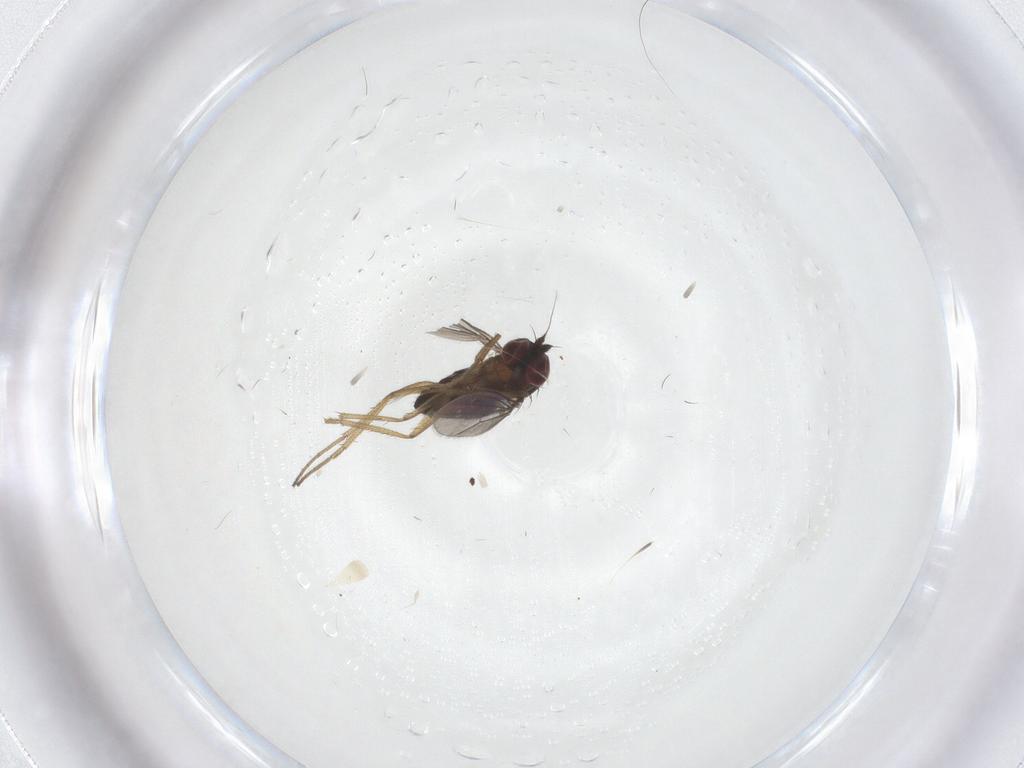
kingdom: Animalia
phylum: Arthropoda
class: Insecta
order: Diptera
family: Dolichopodidae
